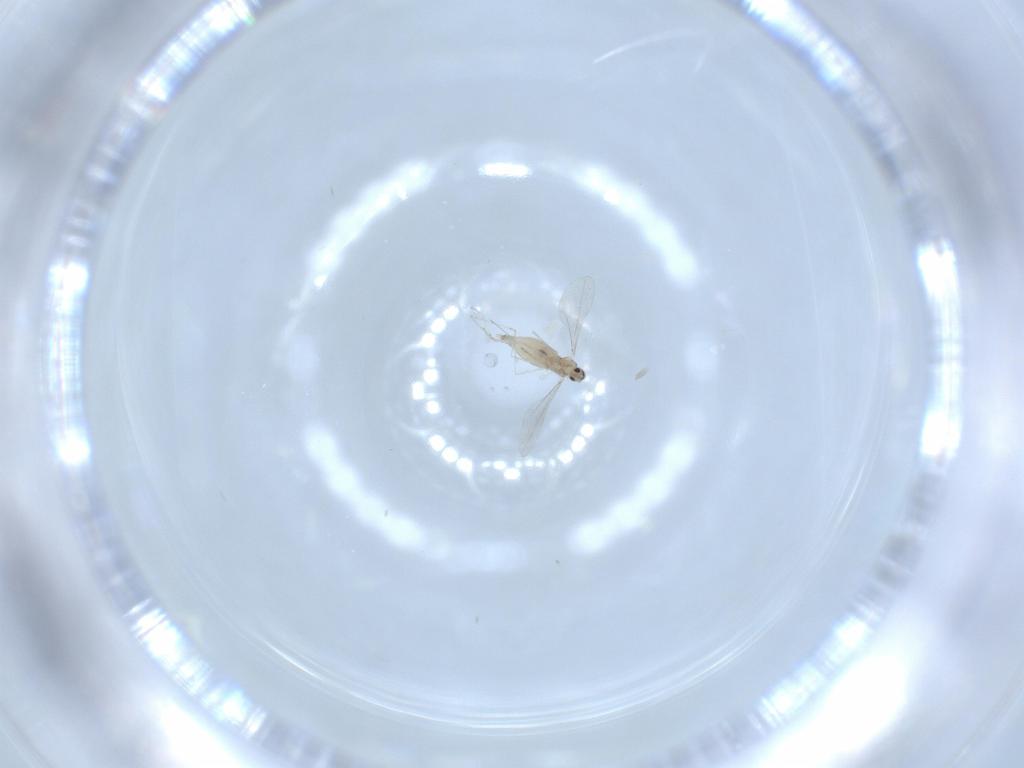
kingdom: Animalia
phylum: Arthropoda
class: Insecta
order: Diptera
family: Cecidomyiidae
